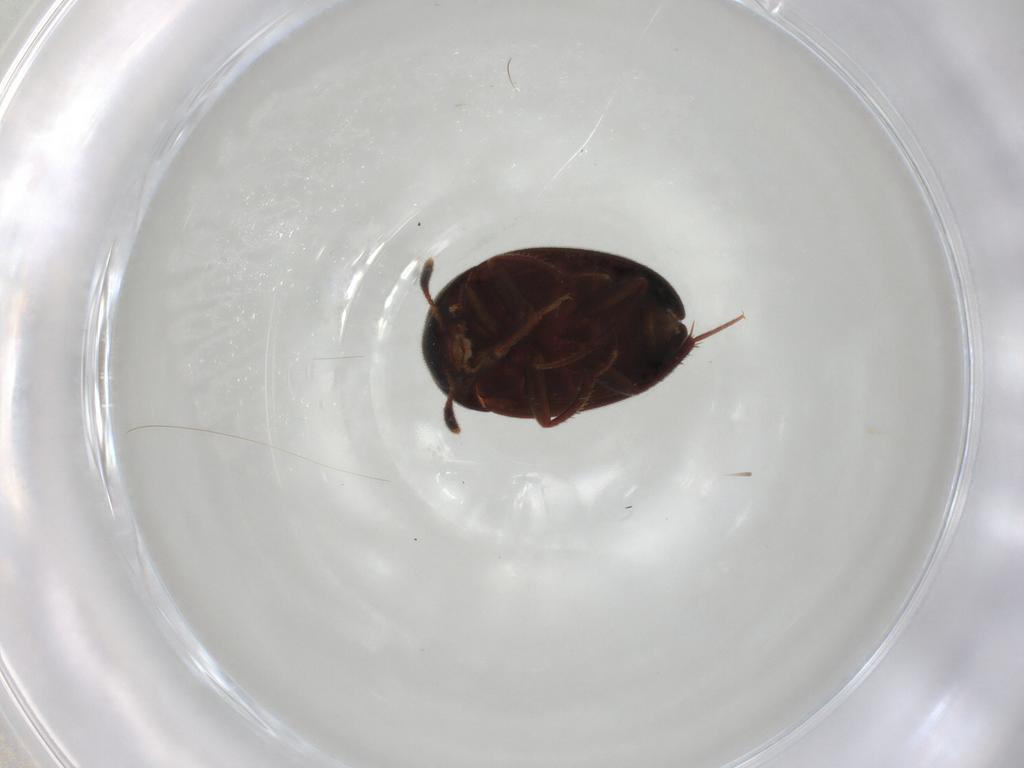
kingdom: Animalia
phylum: Arthropoda
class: Insecta
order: Coleoptera
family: Leiodidae
